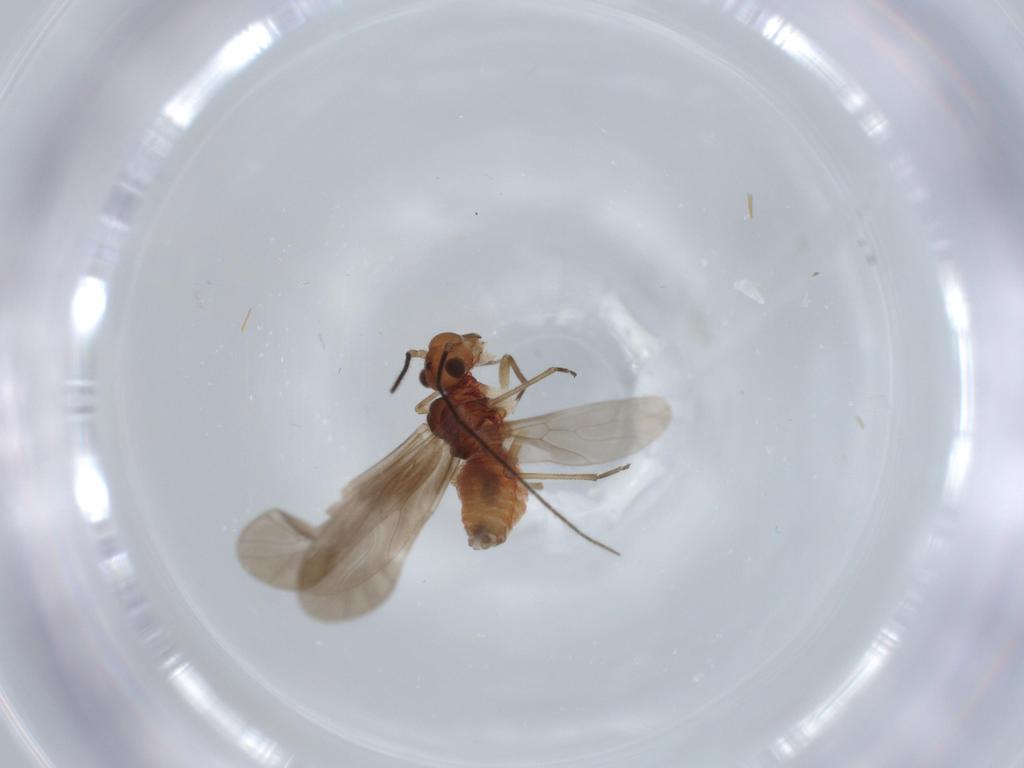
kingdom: Animalia
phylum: Arthropoda
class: Insecta
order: Psocodea
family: Caeciliusidae
